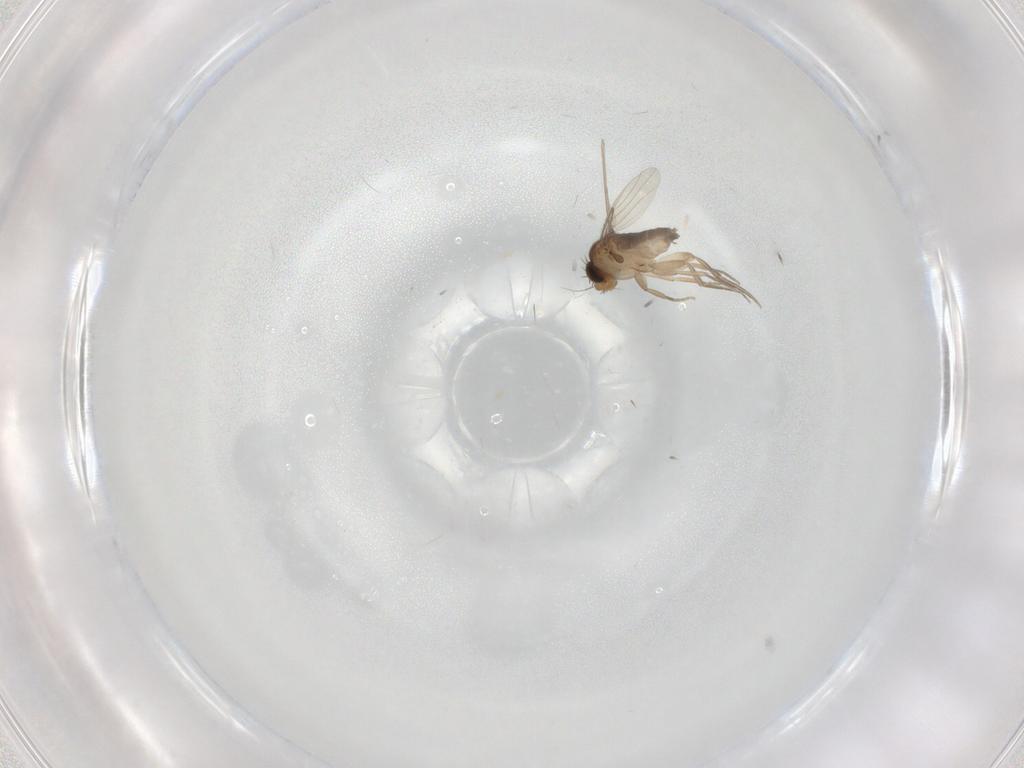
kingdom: Animalia
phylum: Arthropoda
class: Insecta
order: Diptera
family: Phoridae
